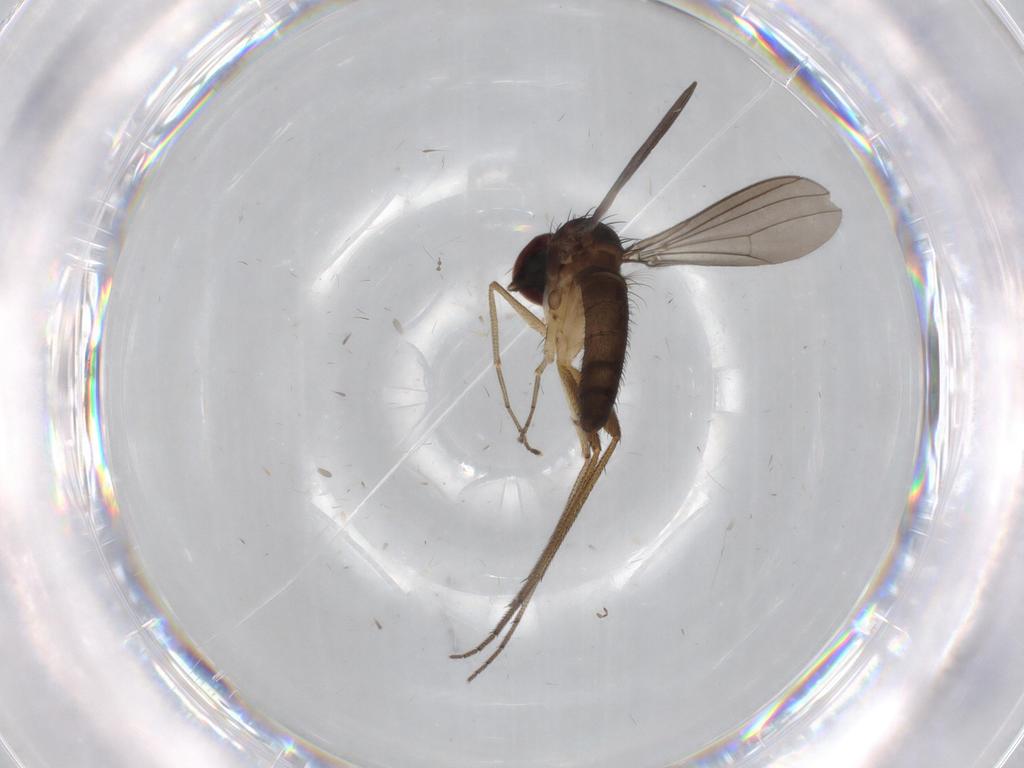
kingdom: Animalia
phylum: Arthropoda
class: Insecta
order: Diptera
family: Dolichopodidae
